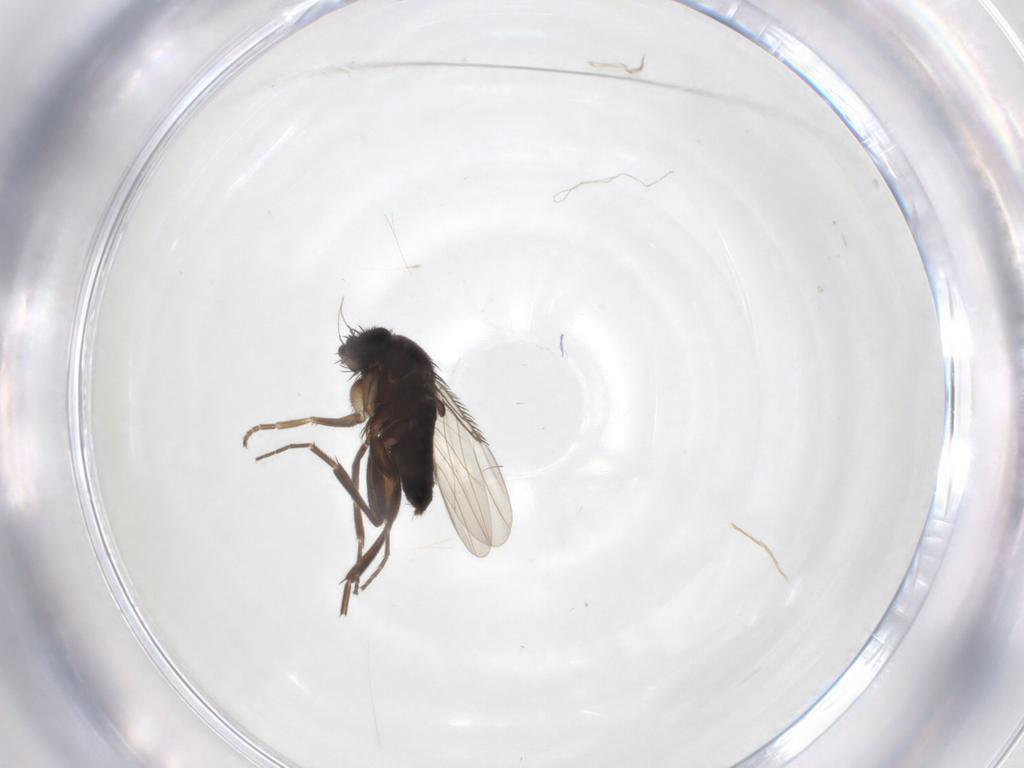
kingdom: Animalia
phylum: Arthropoda
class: Insecta
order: Diptera
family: Phoridae
